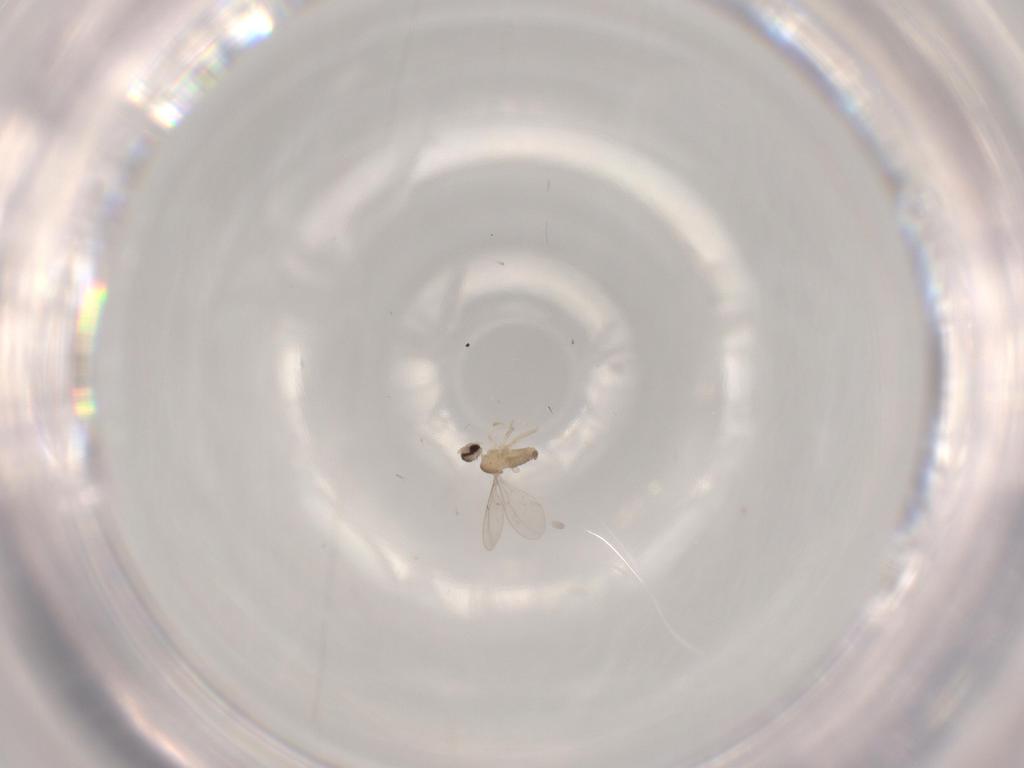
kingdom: Animalia
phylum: Arthropoda
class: Insecta
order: Diptera
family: Cecidomyiidae
